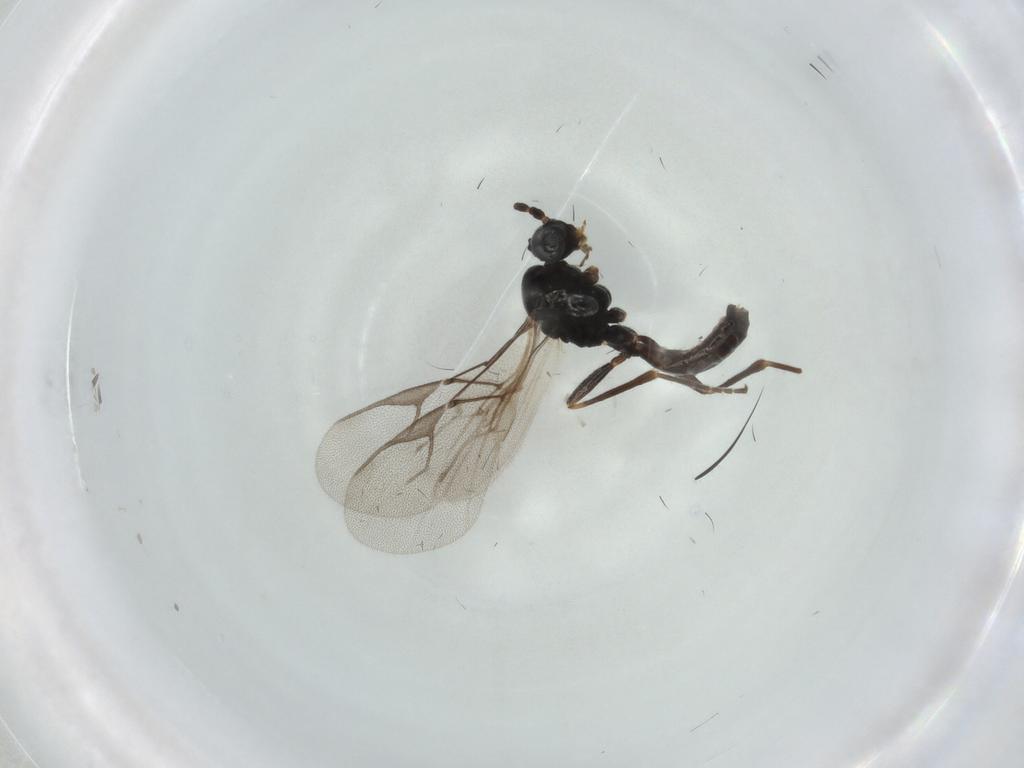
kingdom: Animalia
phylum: Arthropoda
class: Insecta
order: Hymenoptera
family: Braconidae
